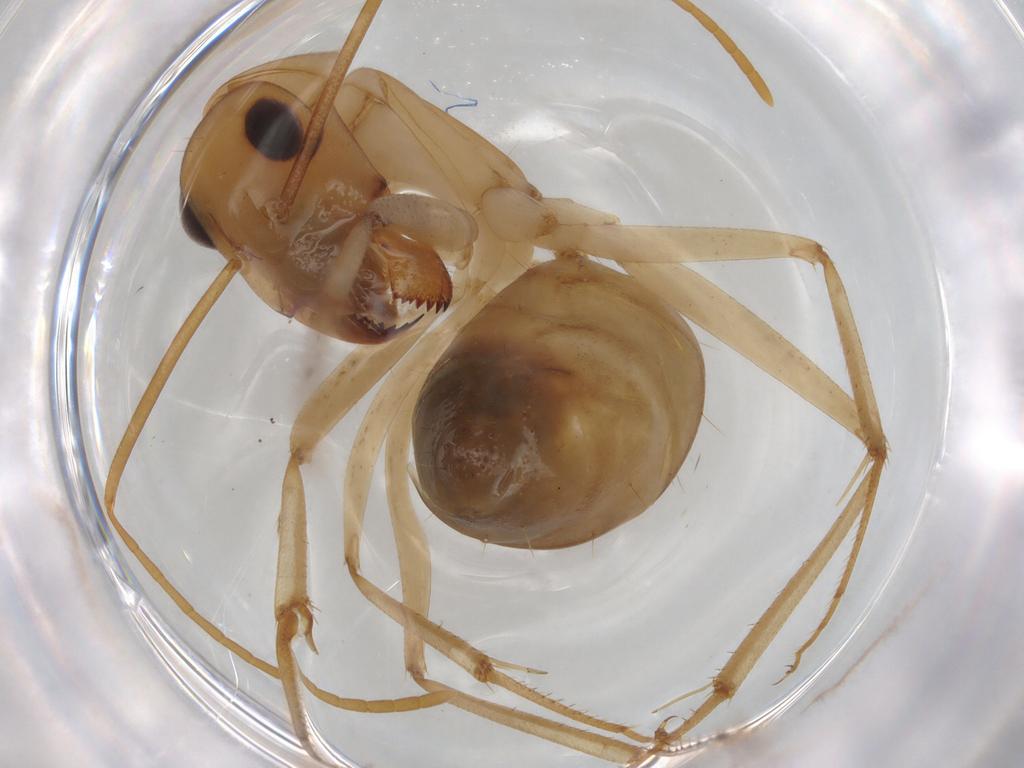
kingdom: Animalia
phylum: Arthropoda
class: Insecta
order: Hymenoptera
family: Formicidae
